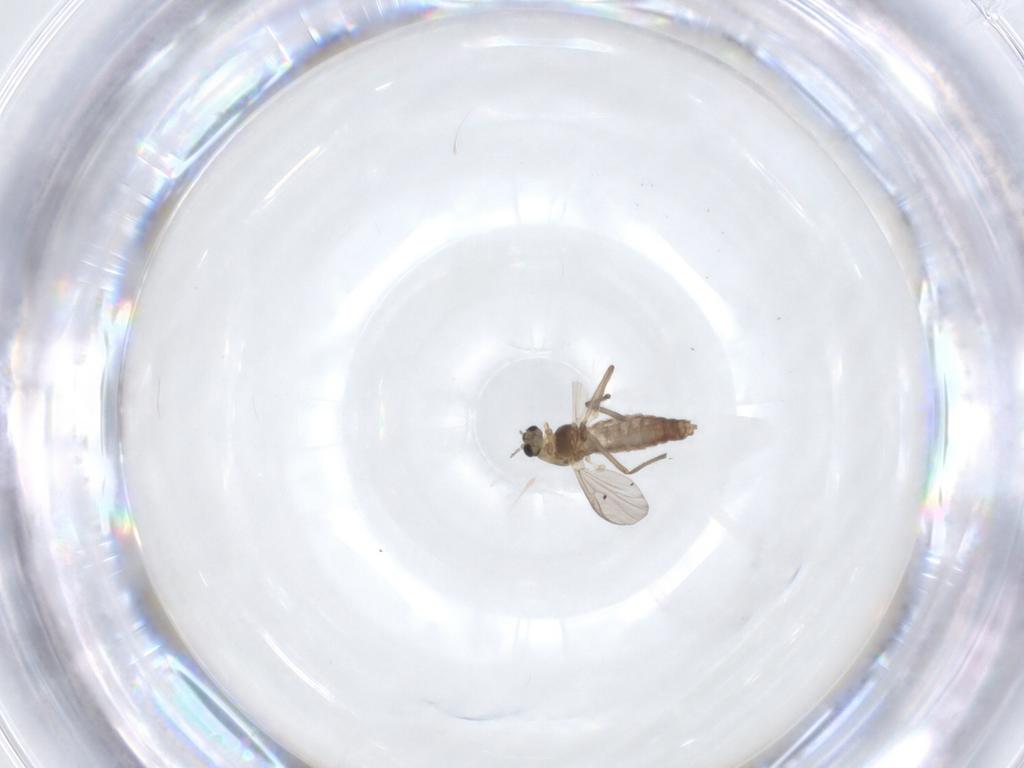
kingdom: Animalia
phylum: Arthropoda
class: Insecta
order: Diptera
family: Chironomidae
